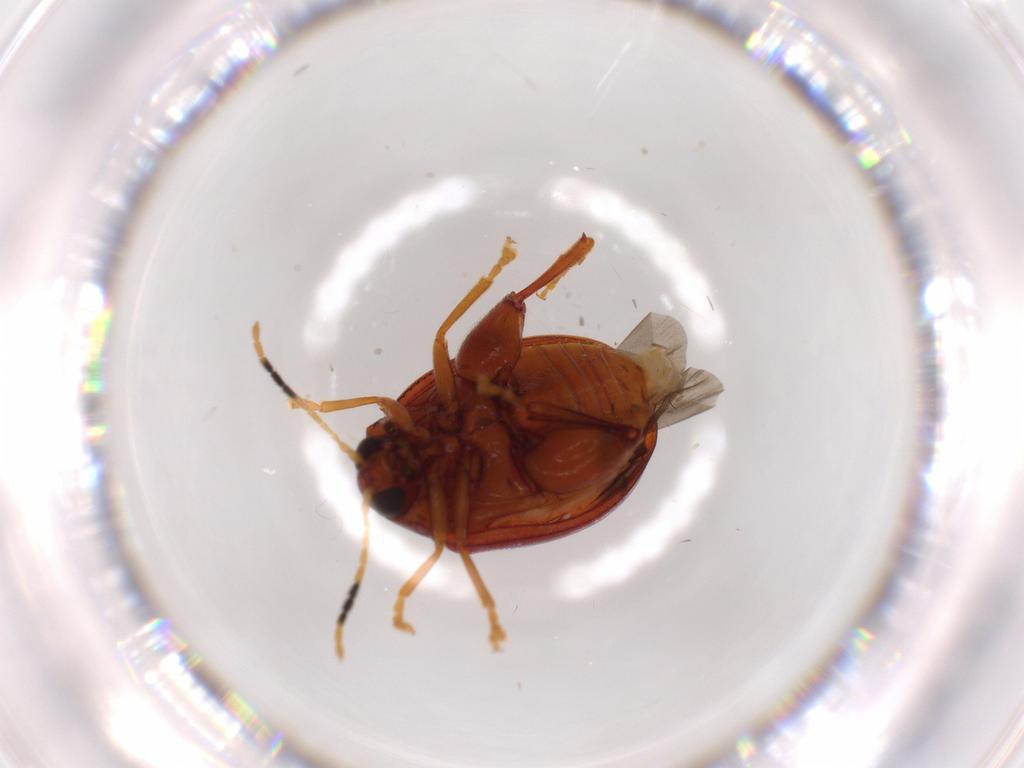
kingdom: Animalia
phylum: Arthropoda
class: Insecta
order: Coleoptera
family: Chrysomelidae
